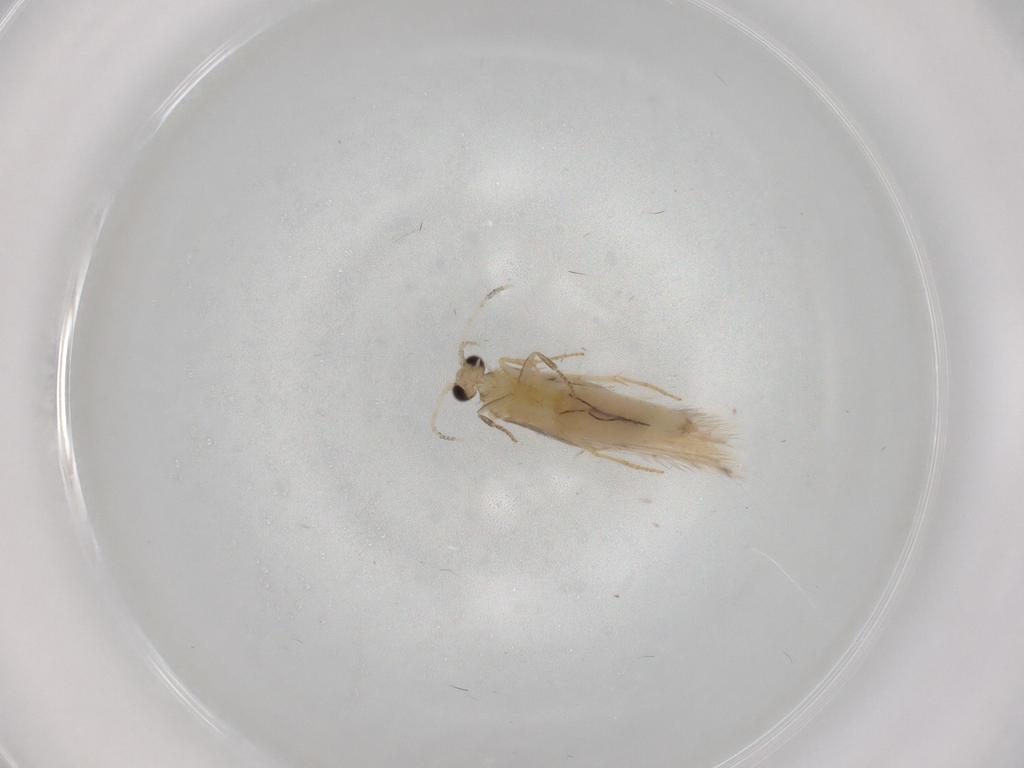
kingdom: Animalia
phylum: Arthropoda
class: Insecta
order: Trichoptera
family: Hydroptilidae
